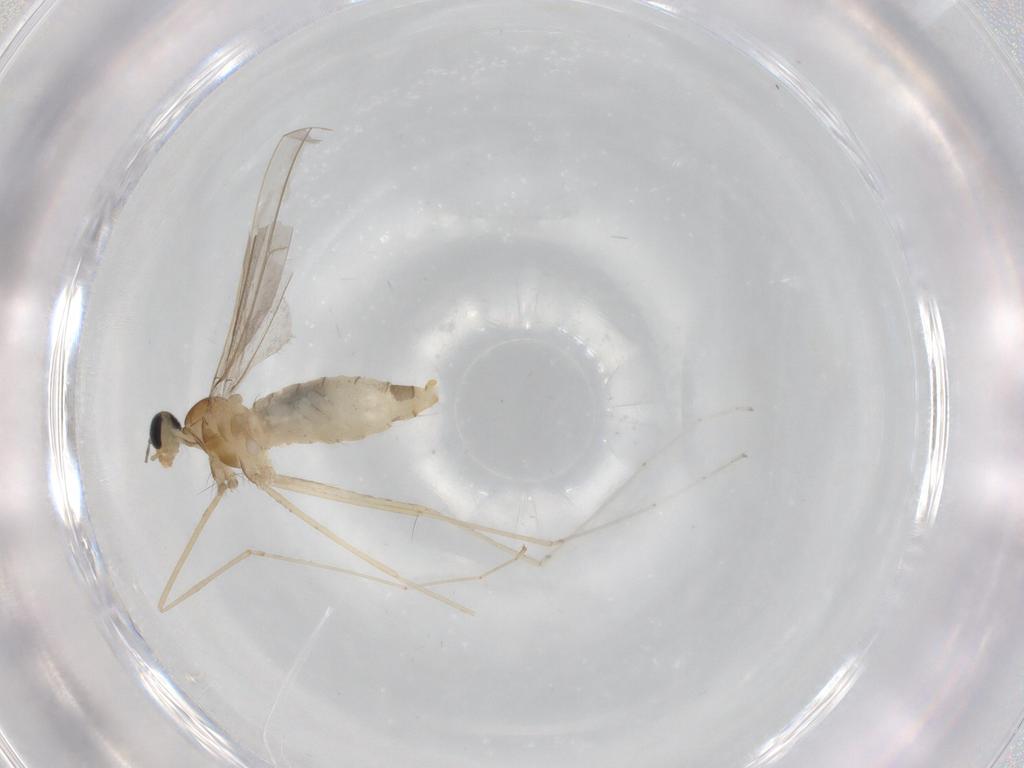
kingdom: Animalia
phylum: Arthropoda
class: Insecta
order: Diptera
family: Cecidomyiidae
